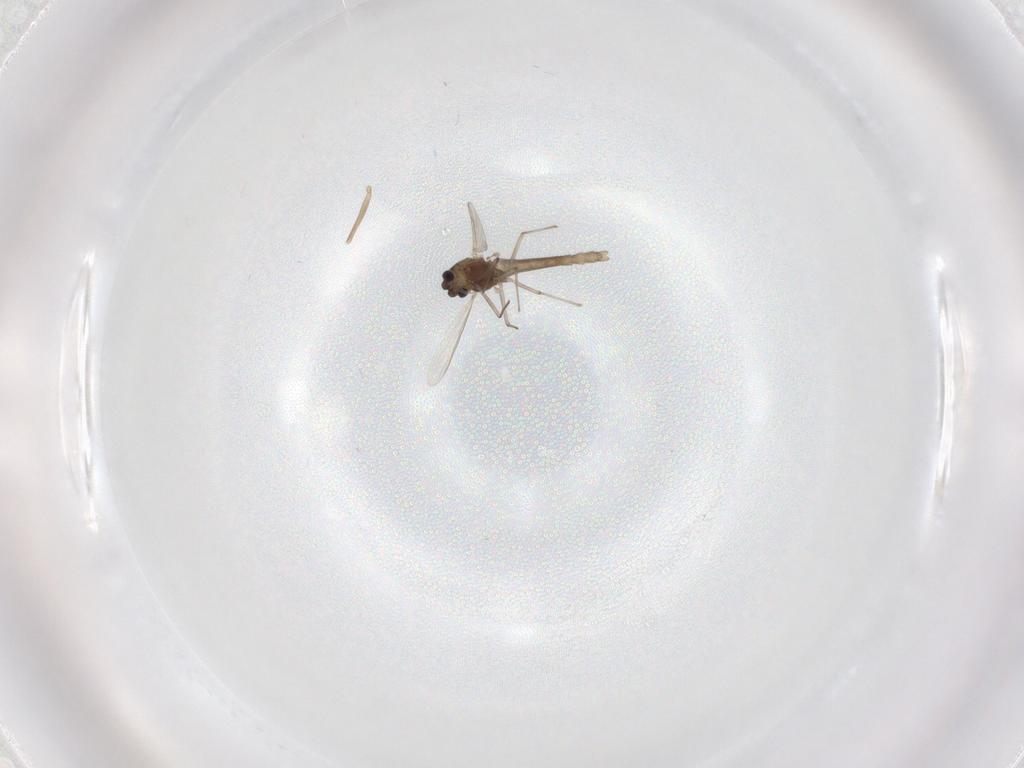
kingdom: Animalia
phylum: Arthropoda
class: Insecta
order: Diptera
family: Chironomidae
